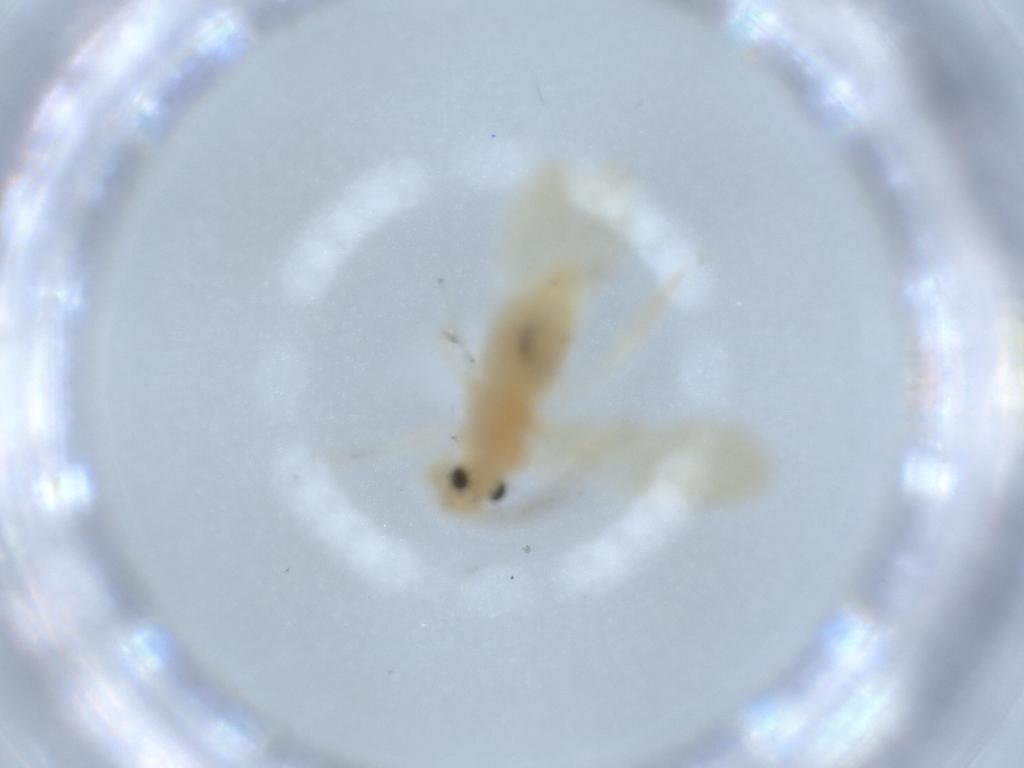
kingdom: Animalia
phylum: Arthropoda
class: Insecta
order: Psocodea
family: Caeciliusidae
